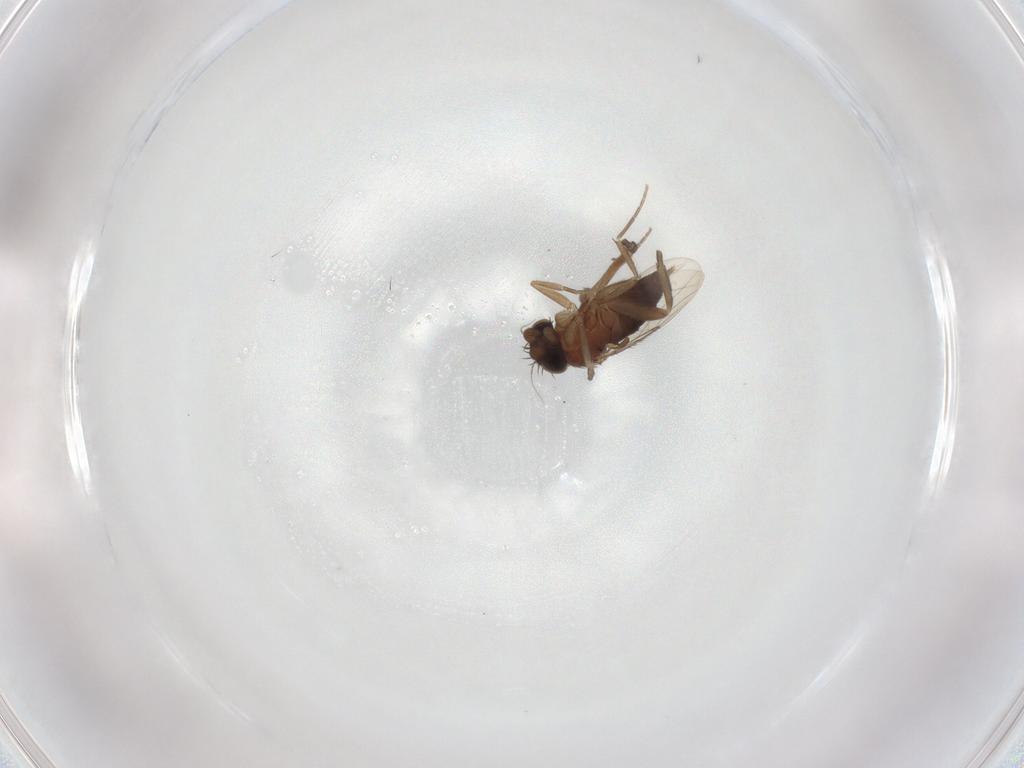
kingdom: Animalia
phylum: Arthropoda
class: Insecta
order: Diptera
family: Phoridae
